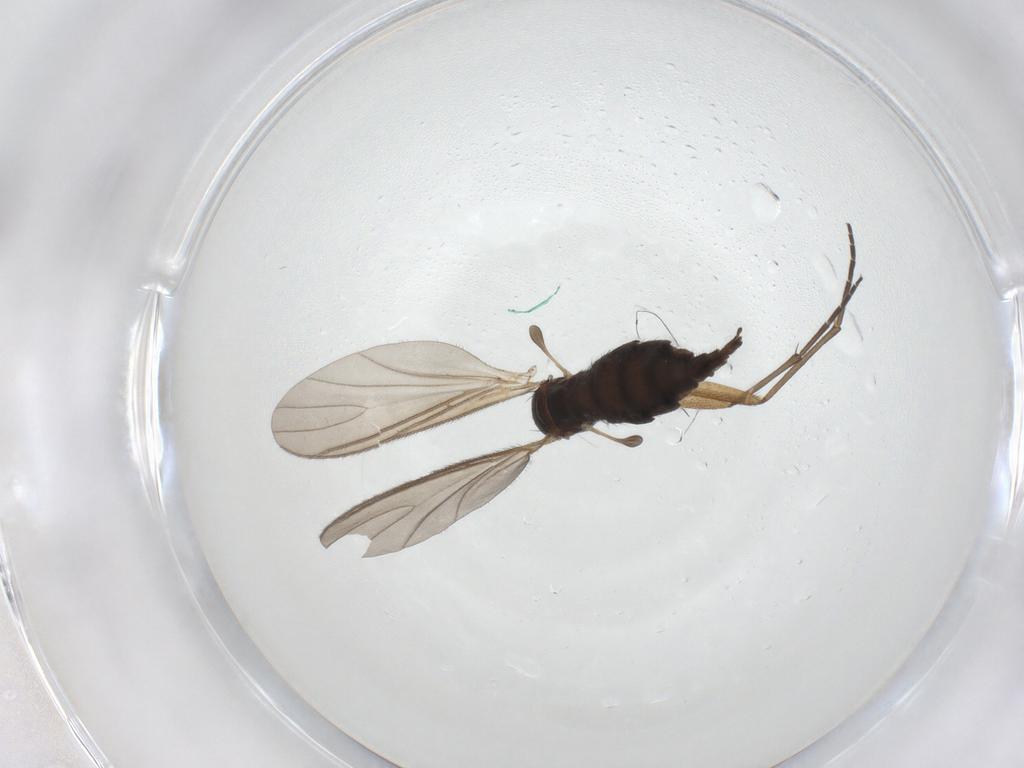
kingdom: Animalia
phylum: Arthropoda
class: Insecta
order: Diptera
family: Sciaridae
